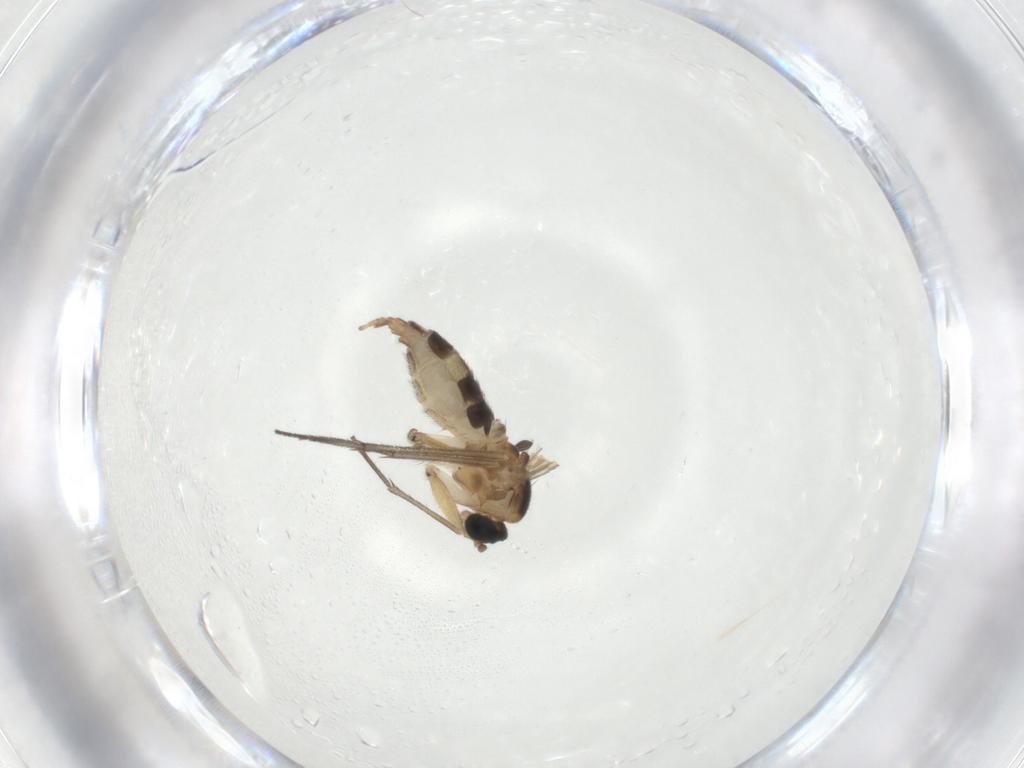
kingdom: Animalia
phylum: Arthropoda
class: Insecta
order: Diptera
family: Sciaridae
